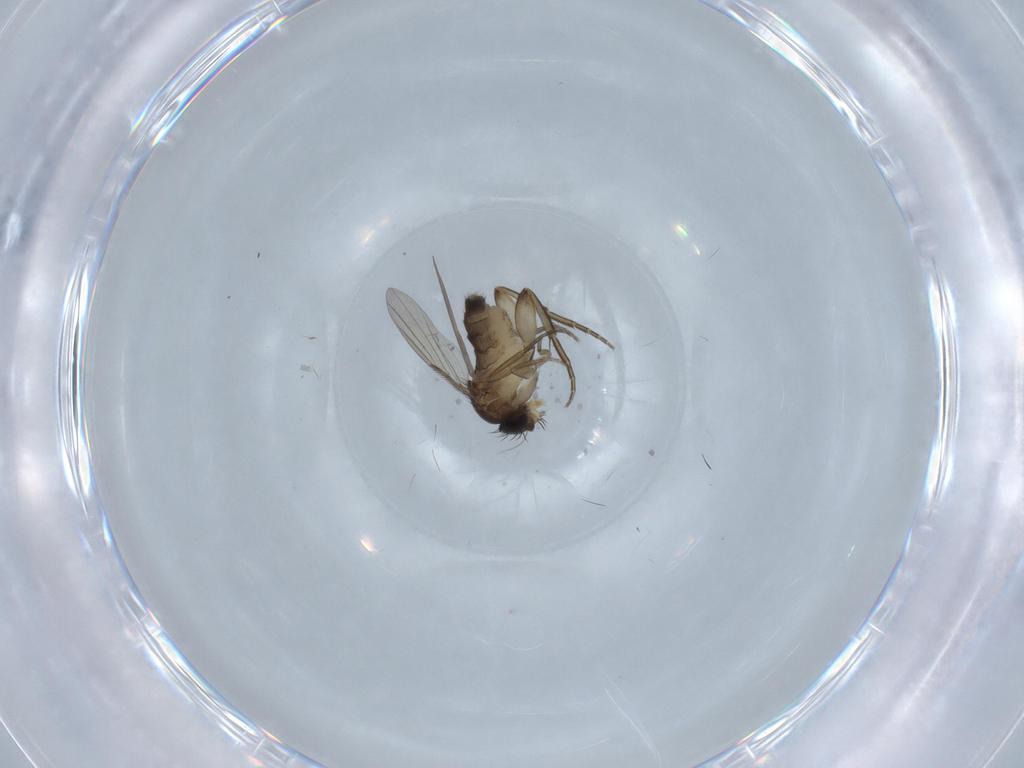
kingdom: Animalia
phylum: Arthropoda
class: Insecta
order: Diptera
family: Phoridae
